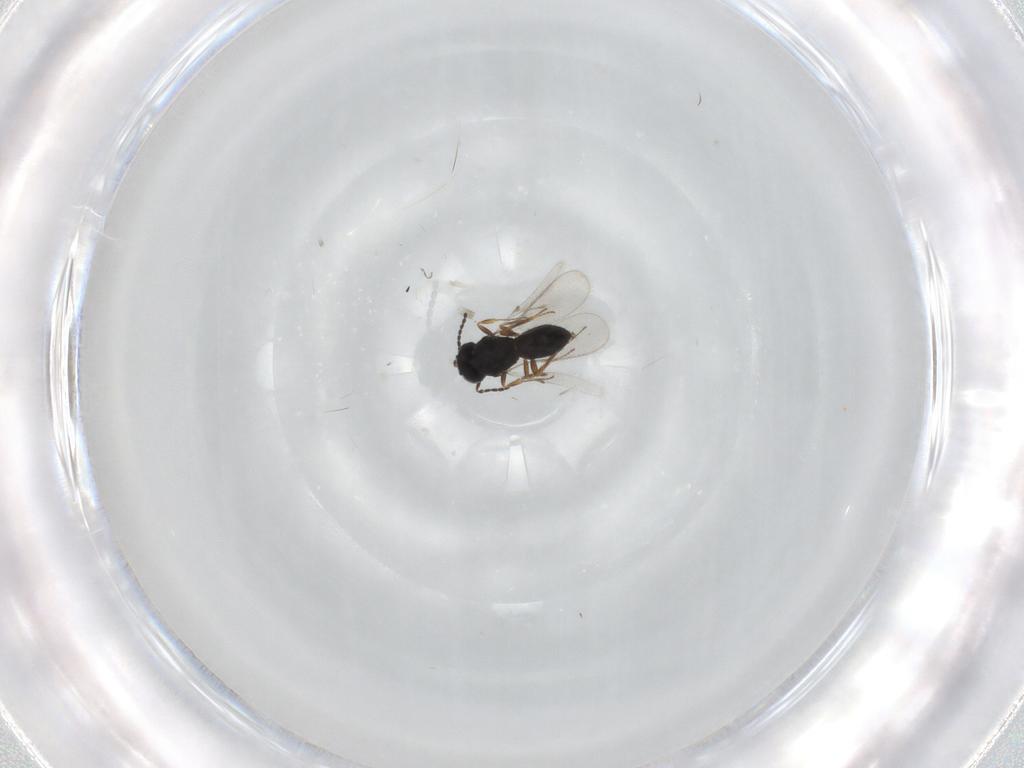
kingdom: Animalia
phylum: Arthropoda
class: Insecta
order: Hymenoptera
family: Scelionidae
